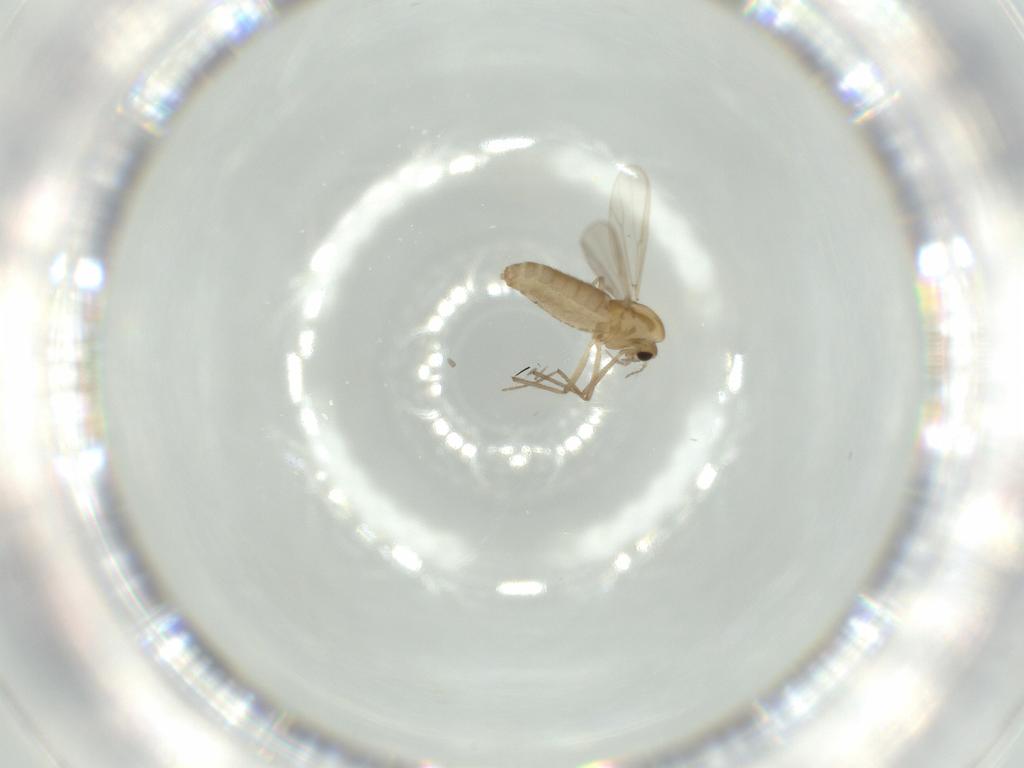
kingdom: Animalia
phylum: Arthropoda
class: Insecta
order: Diptera
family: Chironomidae
